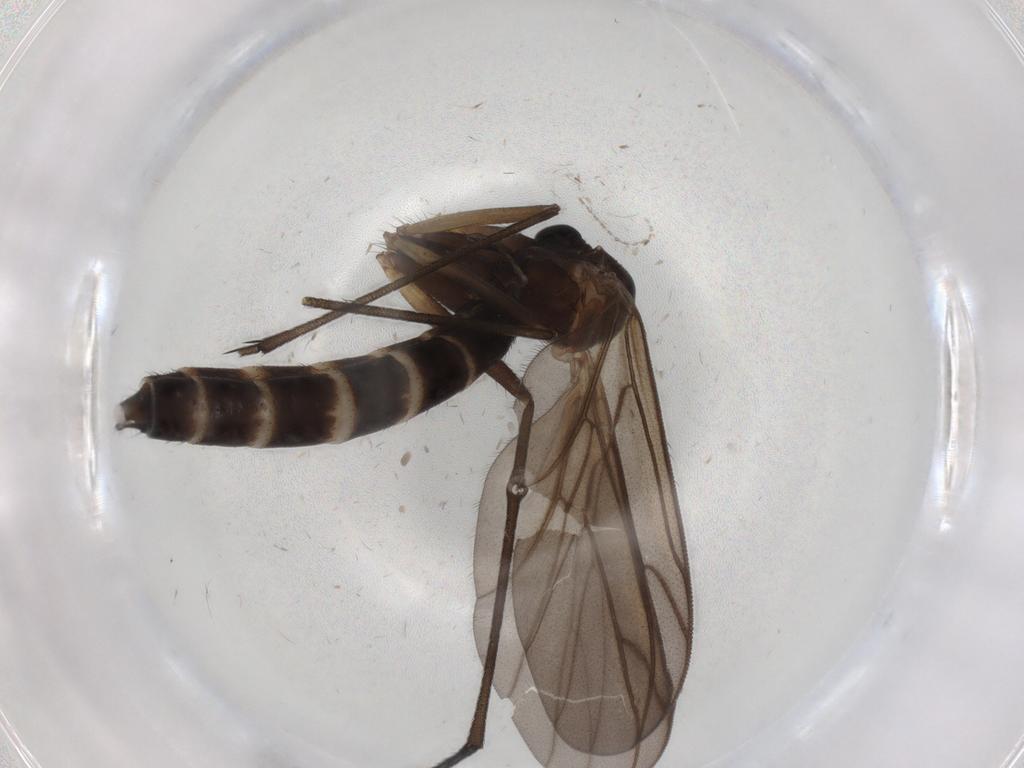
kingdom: Animalia
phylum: Arthropoda
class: Insecta
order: Diptera
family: Ditomyiidae
